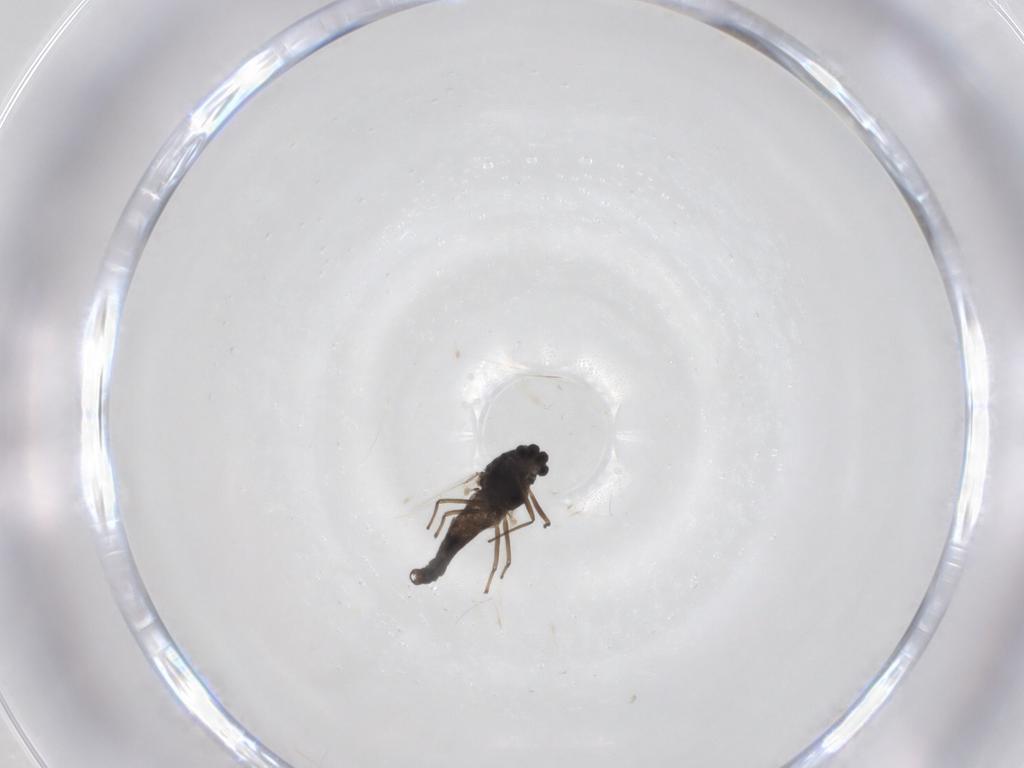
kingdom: Animalia
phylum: Arthropoda
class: Insecta
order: Diptera
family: Chironomidae
